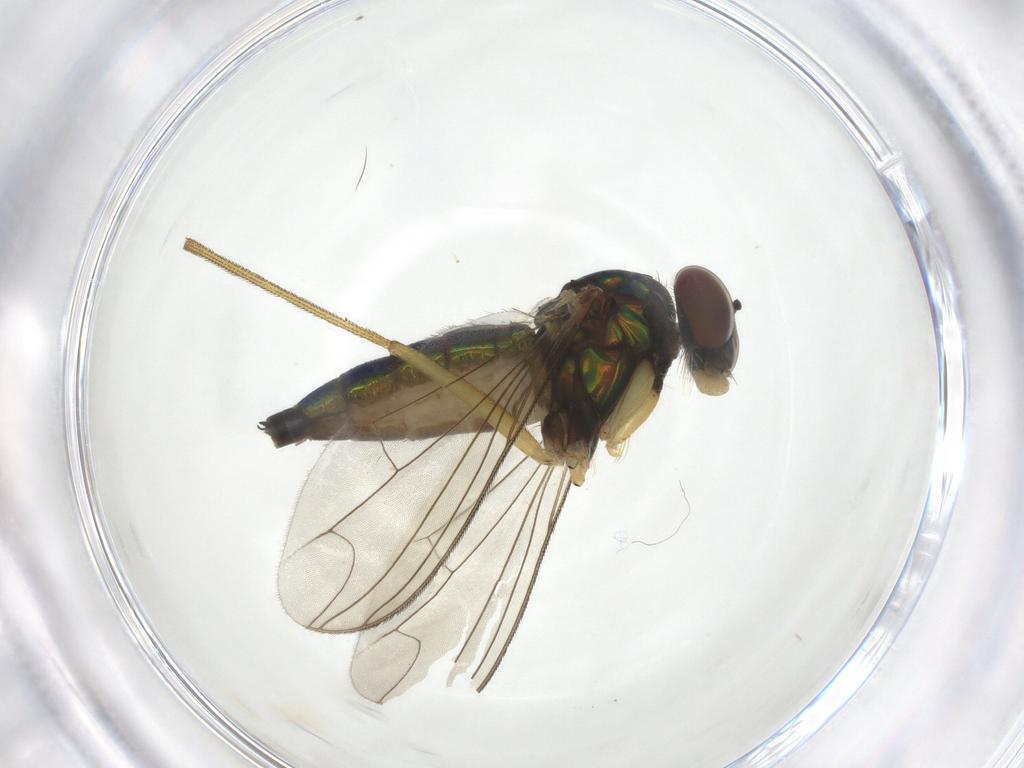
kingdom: Animalia
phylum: Arthropoda
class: Insecta
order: Diptera
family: Dolichopodidae
